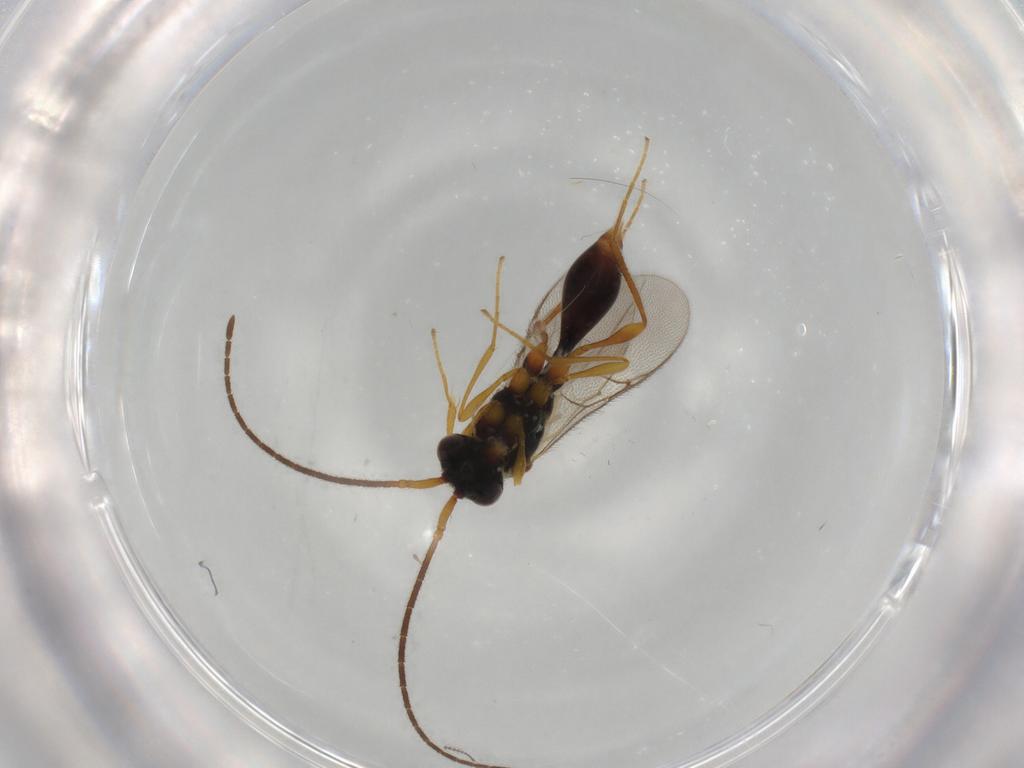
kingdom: Animalia
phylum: Arthropoda
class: Insecta
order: Hymenoptera
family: Diapriidae
